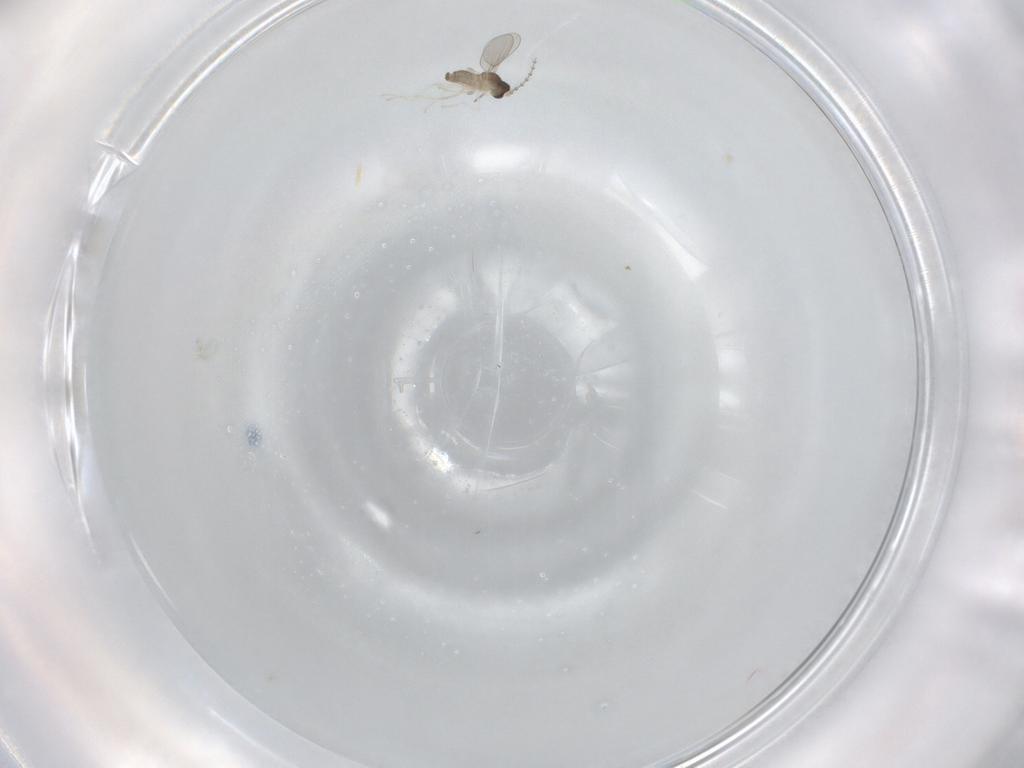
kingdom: Animalia
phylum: Arthropoda
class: Insecta
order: Diptera
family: Cecidomyiidae
